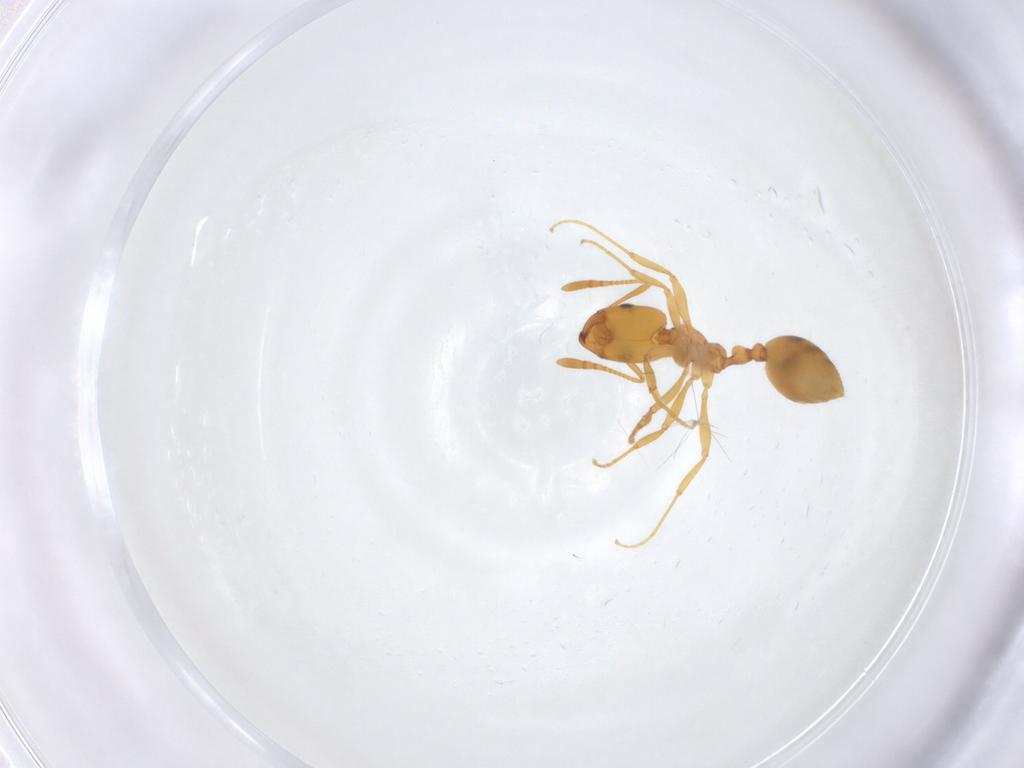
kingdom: Animalia
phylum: Arthropoda
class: Insecta
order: Hymenoptera
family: Formicidae
